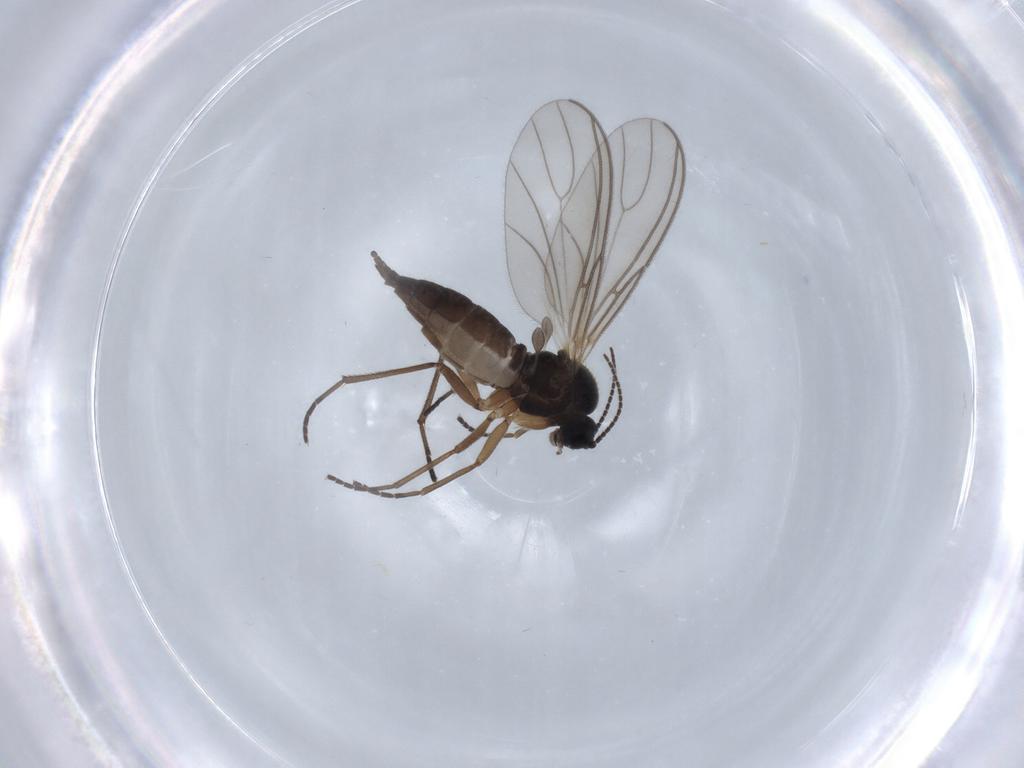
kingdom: Animalia
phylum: Arthropoda
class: Insecta
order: Diptera
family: Sciaridae
